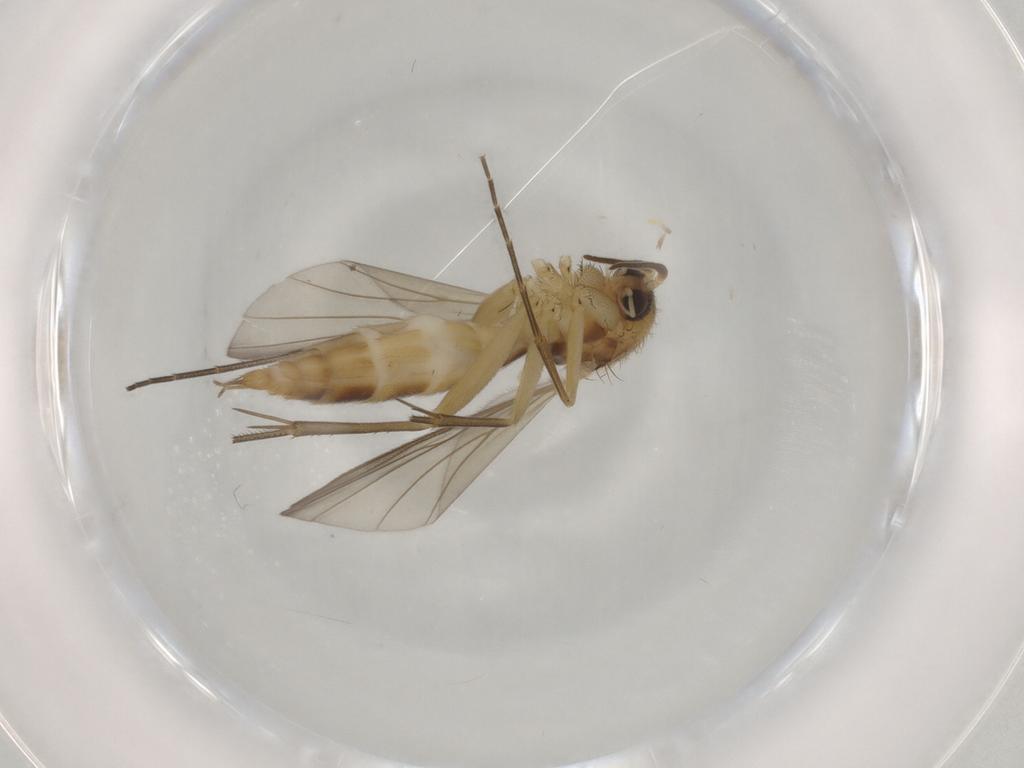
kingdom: Animalia
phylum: Arthropoda
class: Insecta
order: Diptera
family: Mycetophilidae
